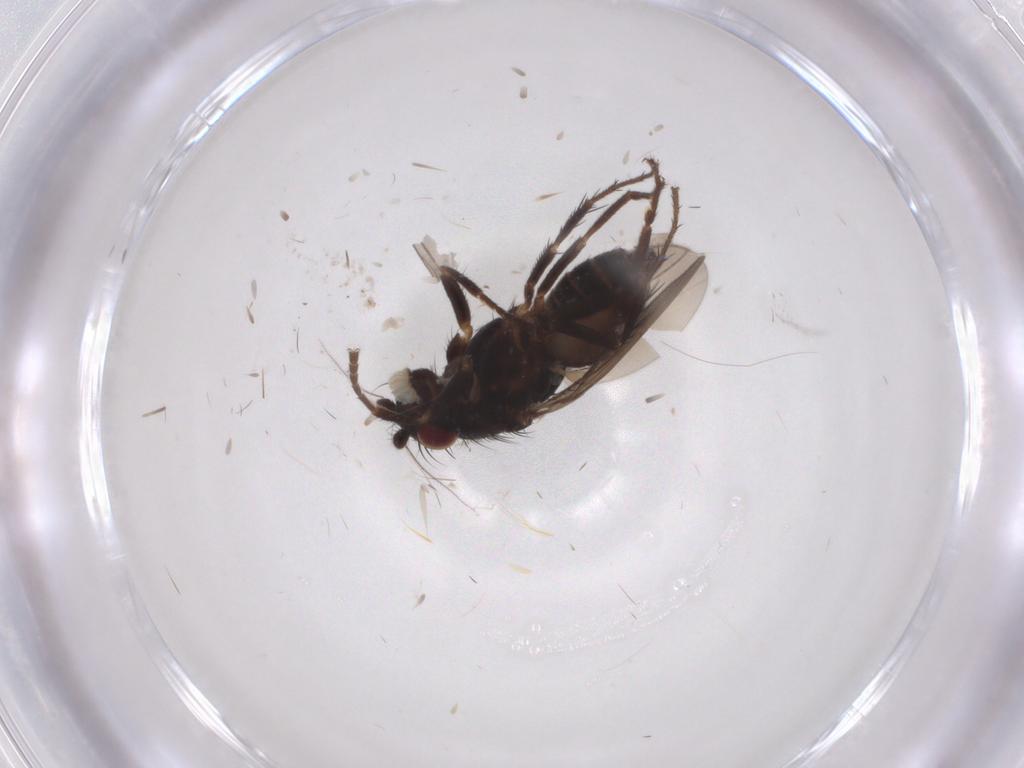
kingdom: Animalia
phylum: Arthropoda
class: Insecta
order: Diptera
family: Sphaeroceridae
